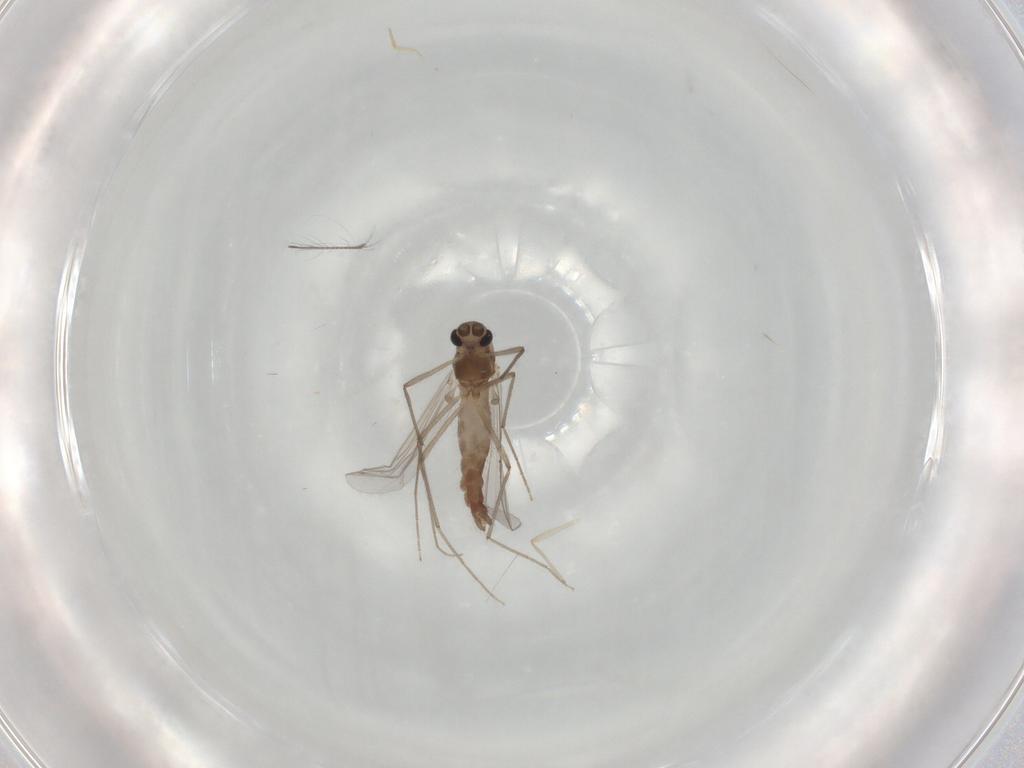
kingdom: Animalia
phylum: Arthropoda
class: Insecta
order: Diptera
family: Chironomidae
